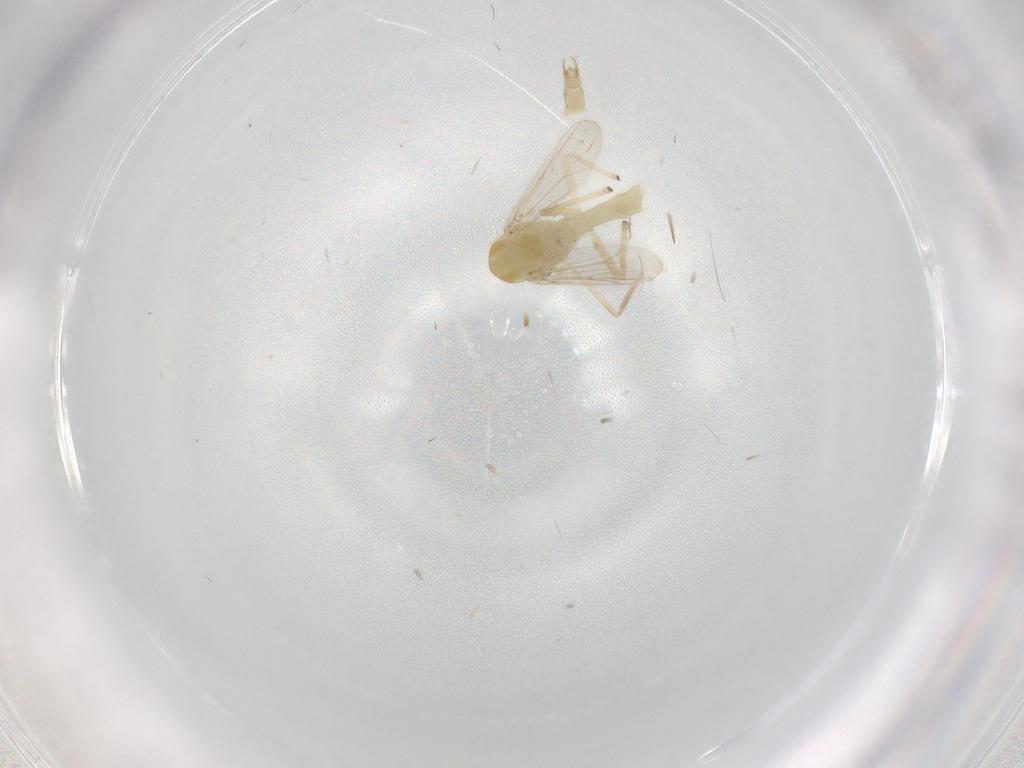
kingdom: Animalia
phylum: Arthropoda
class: Insecta
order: Diptera
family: Chironomidae
